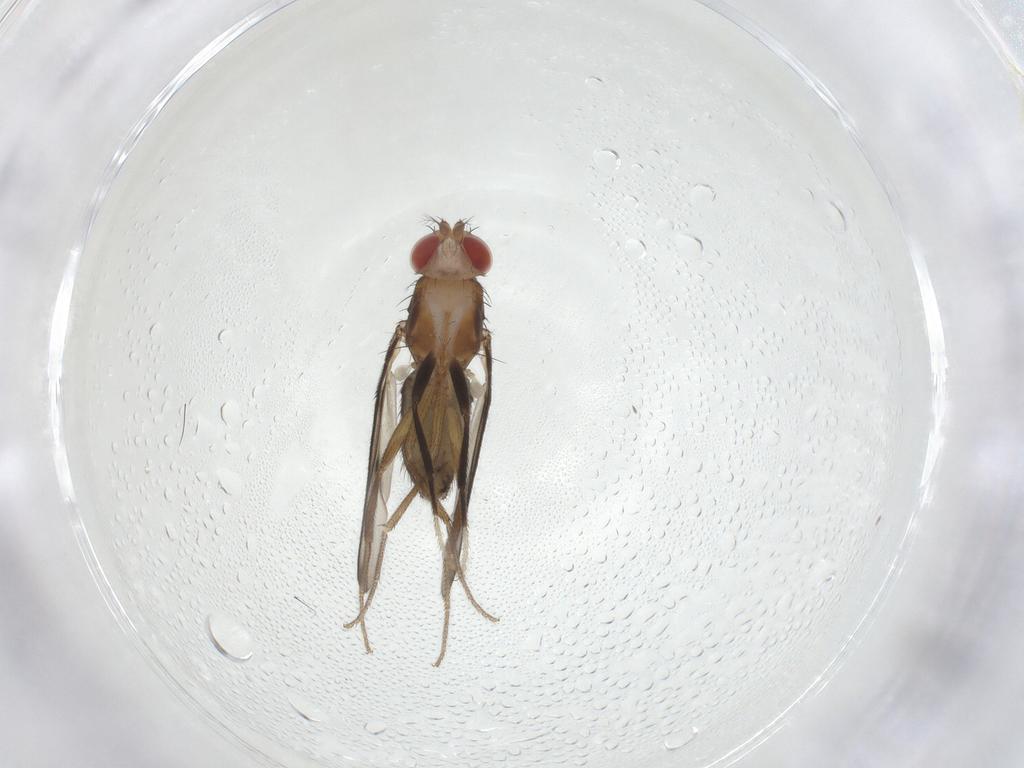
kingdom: Animalia
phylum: Arthropoda
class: Insecta
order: Diptera
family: Drosophilidae
